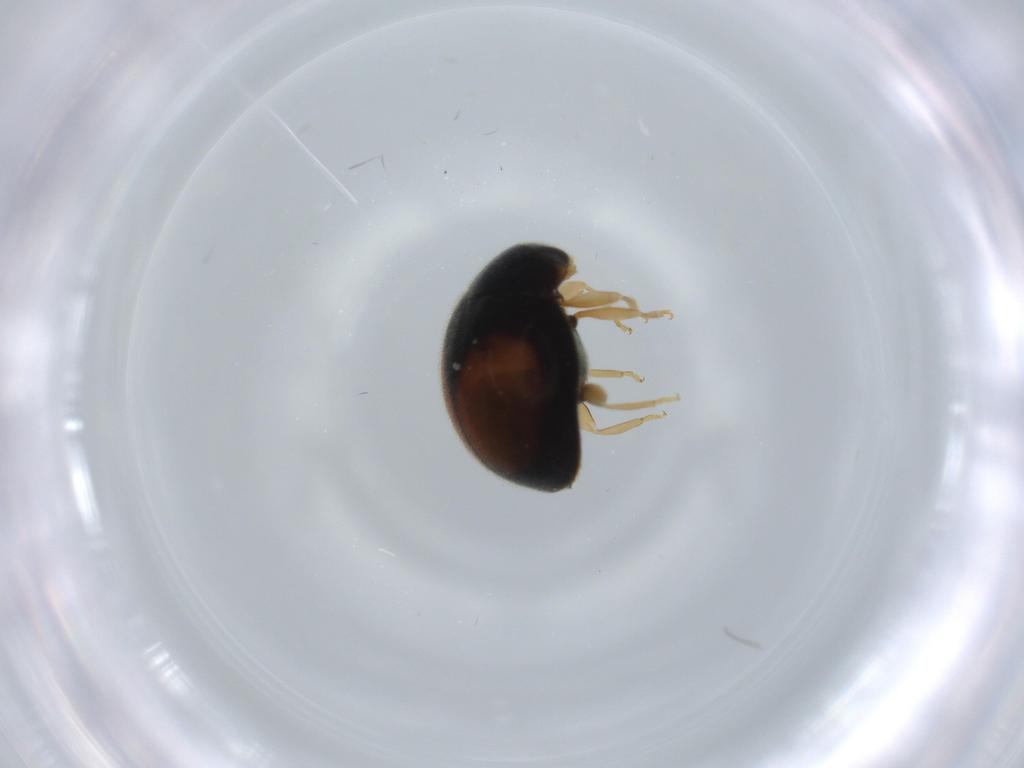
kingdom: Animalia
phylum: Arthropoda
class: Insecta
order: Coleoptera
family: Coccinellidae
